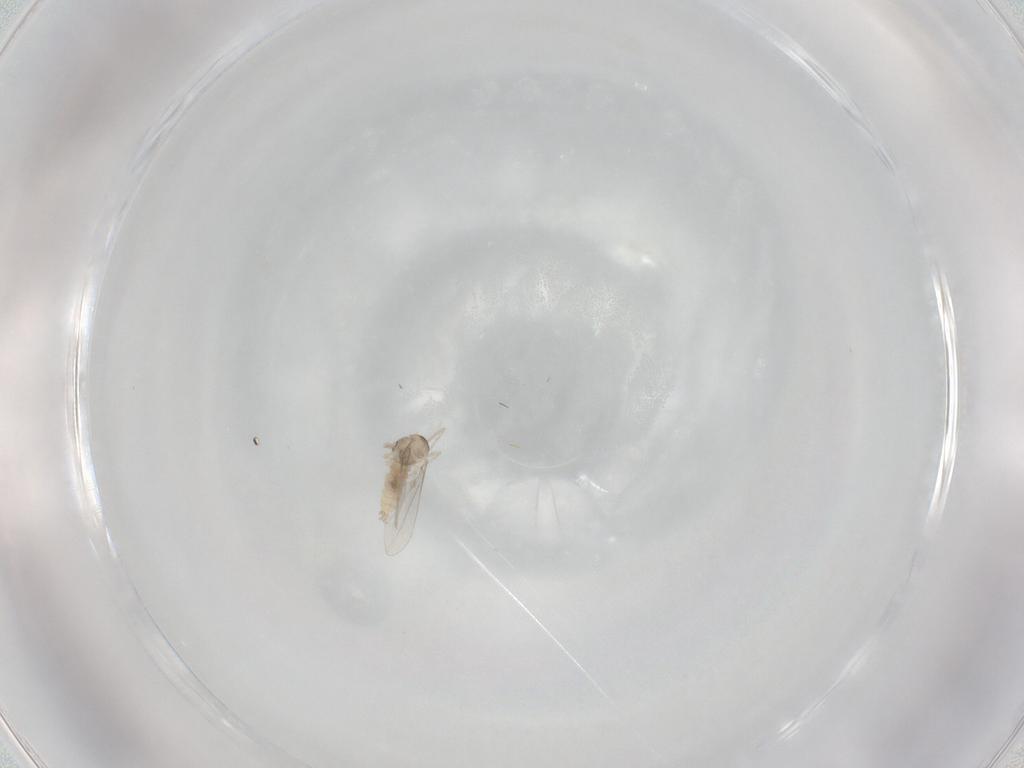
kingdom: Animalia
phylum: Arthropoda
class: Insecta
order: Diptera
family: Cecidomyiidae
